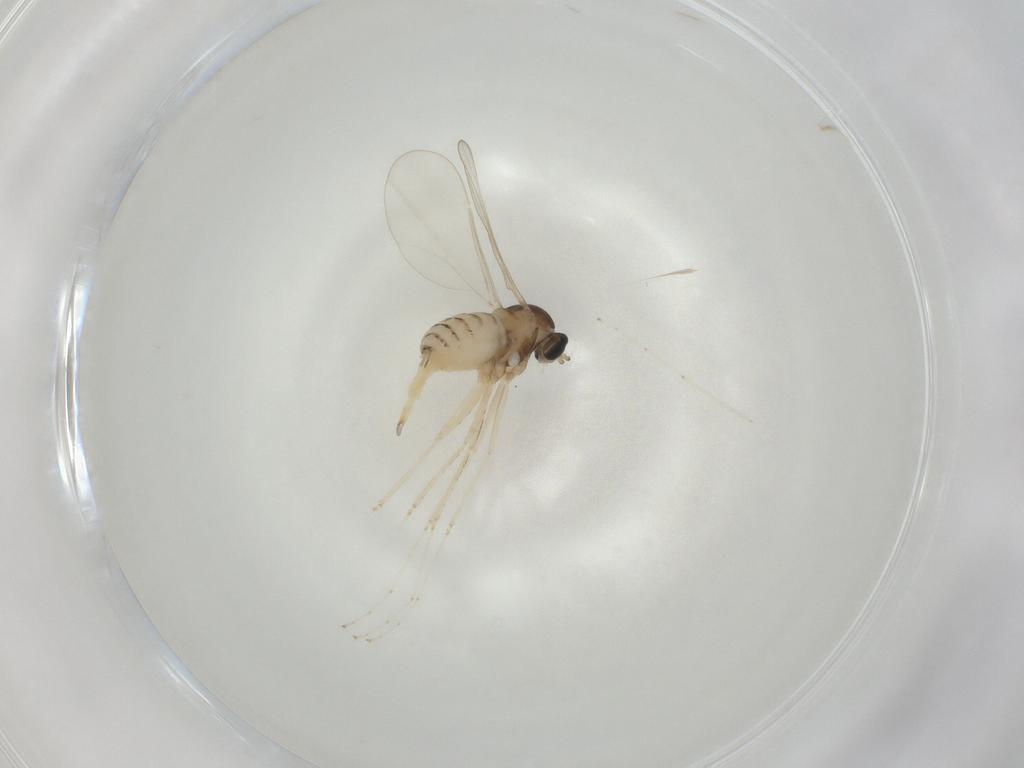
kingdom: Animalia
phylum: Arthropoda
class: Insecta
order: Diptera
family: Cecidomyiidae
